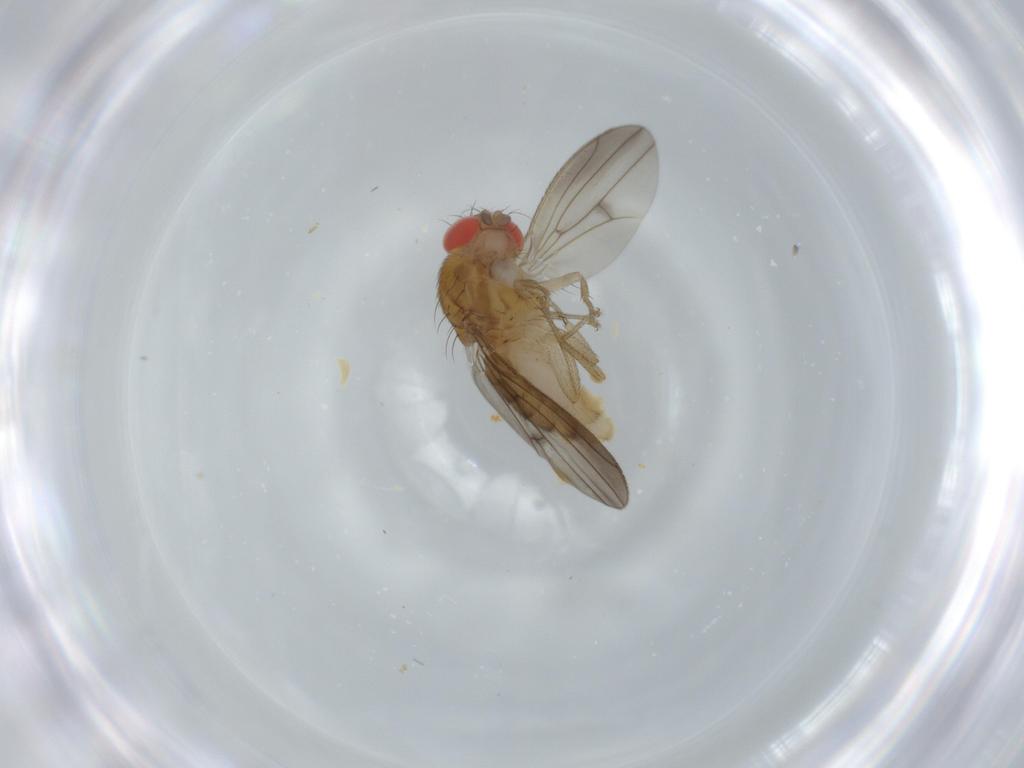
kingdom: Animalia
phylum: Arthropoda
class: Insecta
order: Diptera
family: Drosophilidae
